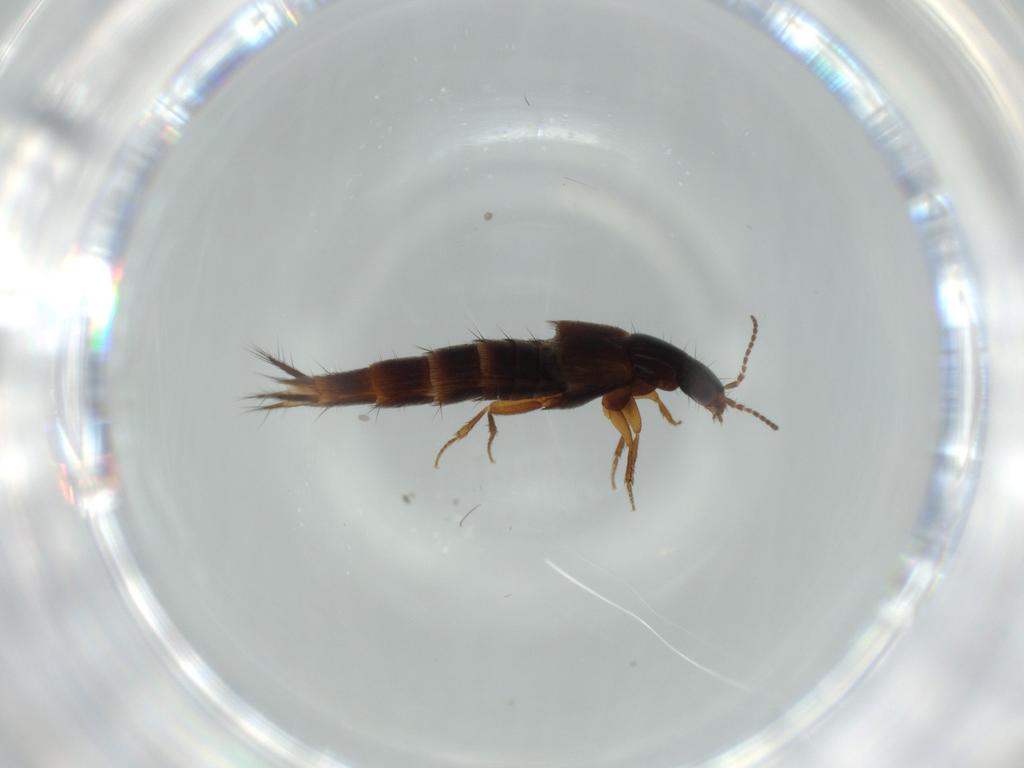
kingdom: Animalia
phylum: Arthropoda
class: Insecta
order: Coleoptera
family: Staphylinidae
